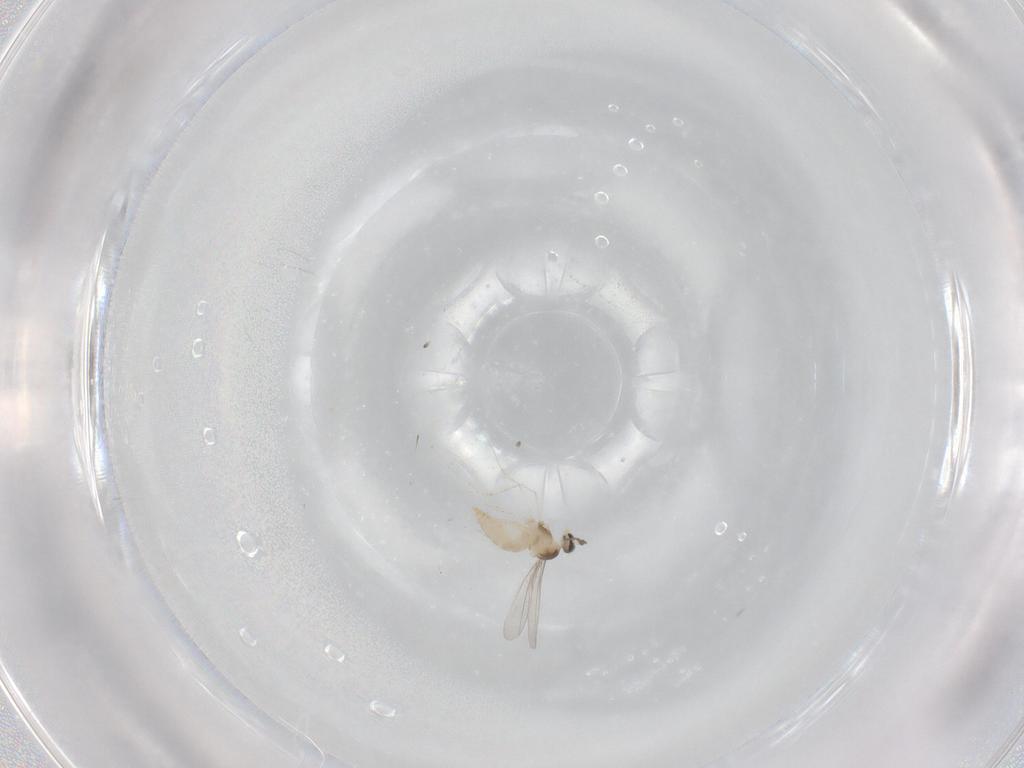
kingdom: Animalia
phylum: Arthropoda
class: Insecta
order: Diptera
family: Cecidomyiidae
